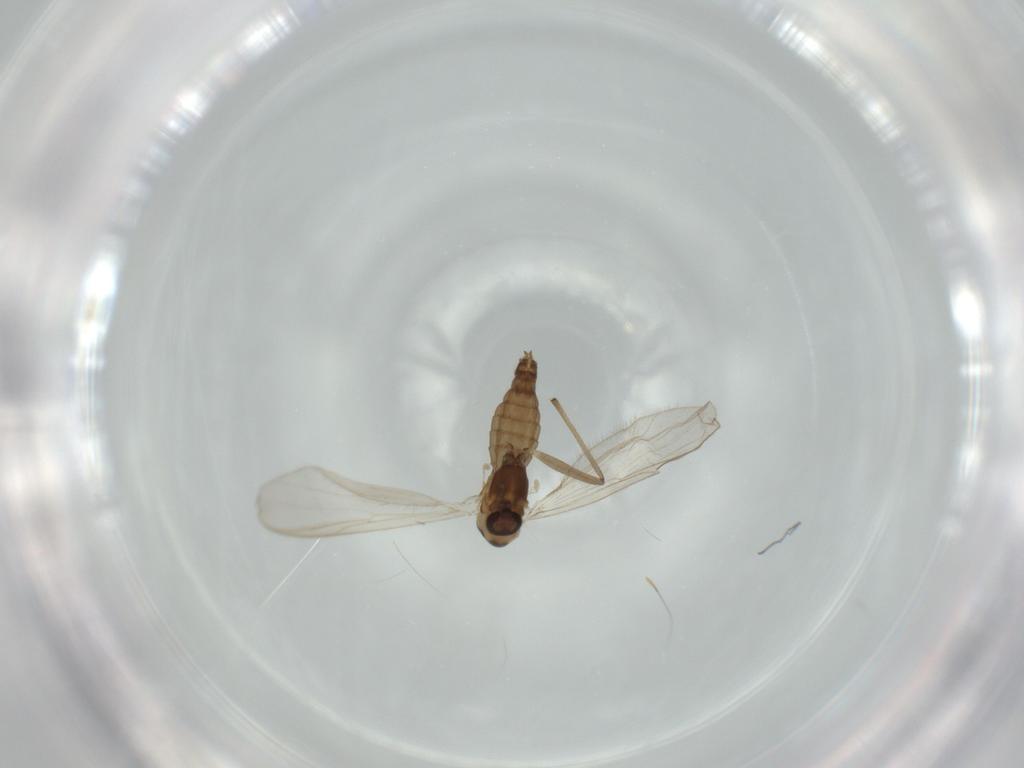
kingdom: Animalia
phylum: Arthropoda
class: Insecta
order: Diptera
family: Chironomidae
